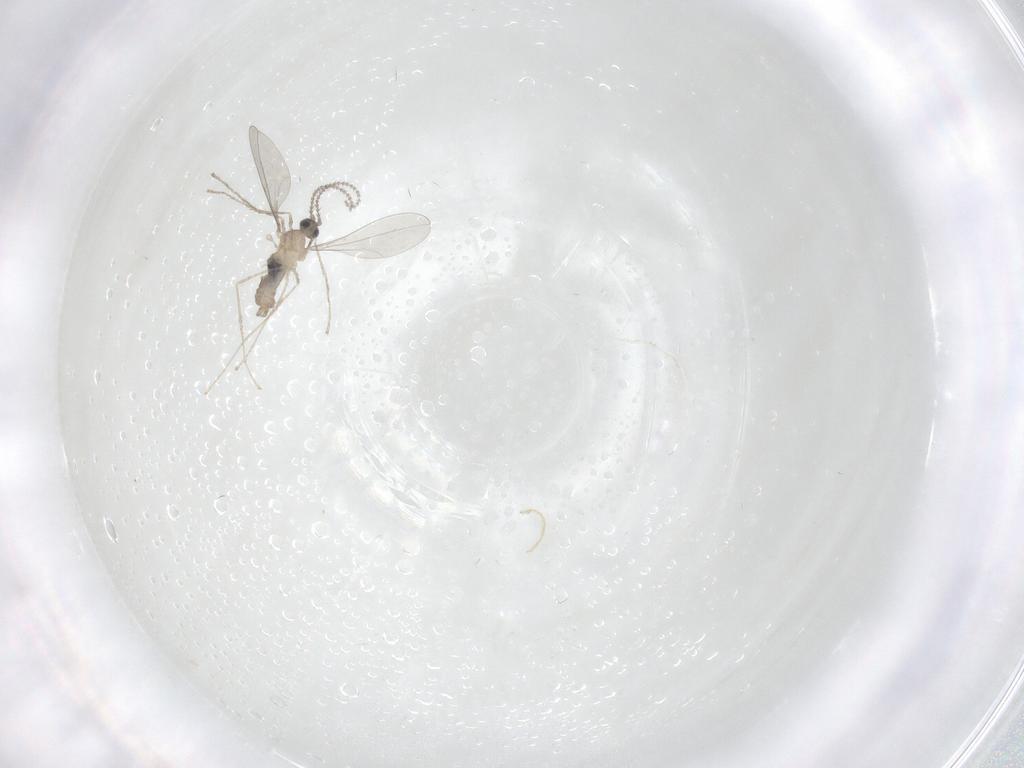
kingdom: Animalia
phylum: Arthropoda
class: Insecta
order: Diptera
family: Cecidomyiidae
